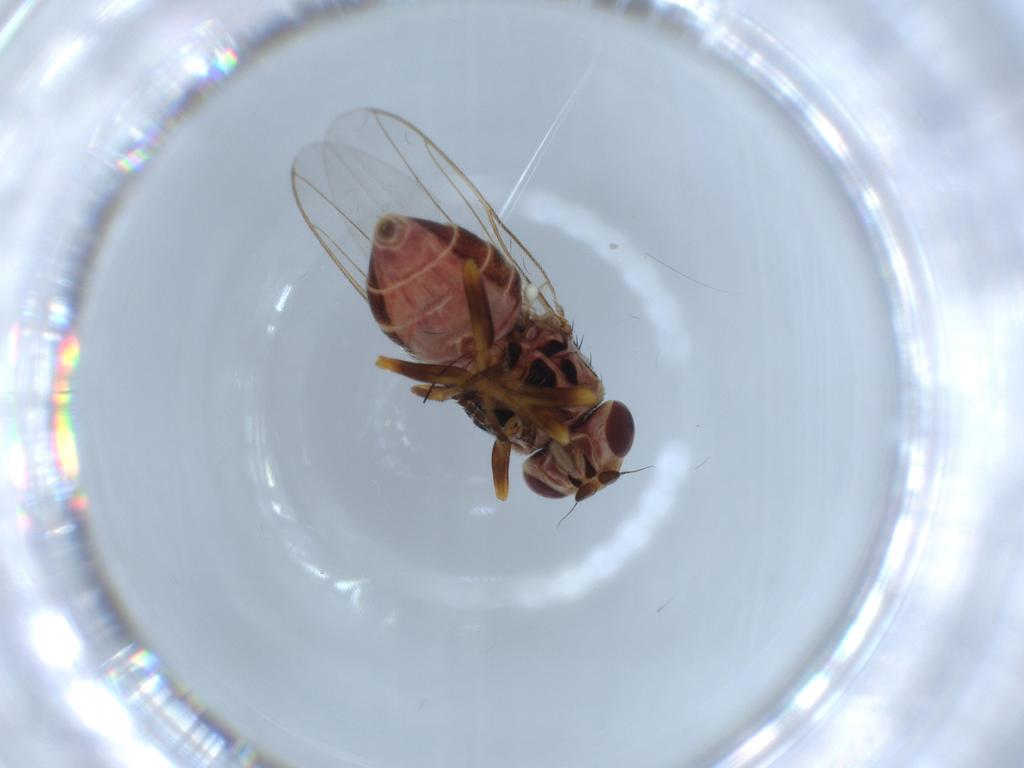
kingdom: Animalia
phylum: Arthropoda
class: Insecta
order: Diptera
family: Chloropidae
